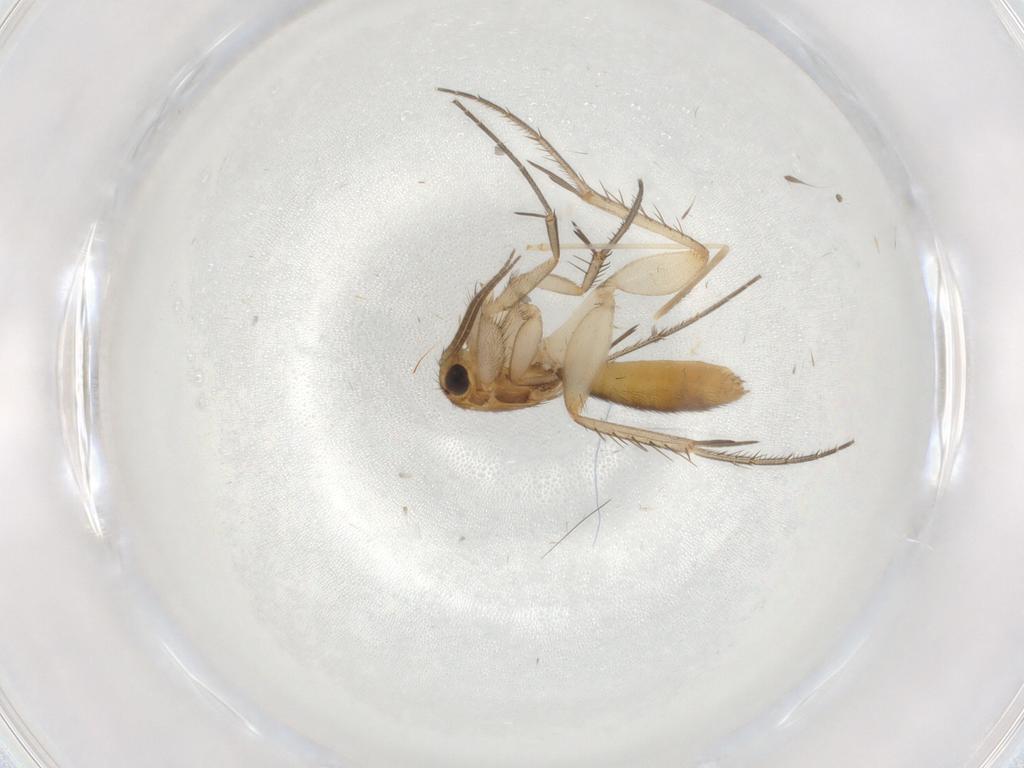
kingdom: Animalia
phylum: Arthropoda
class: Insecta
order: Diptera
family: Mycetophilidae
